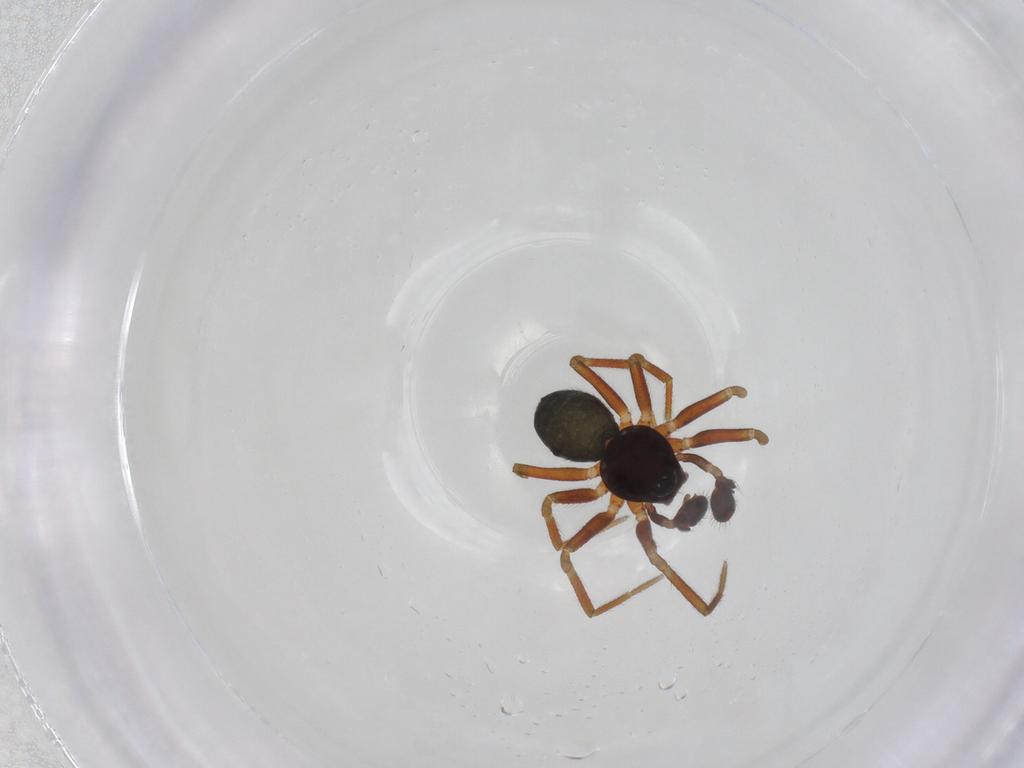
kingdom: Animalia
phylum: Arthropoda
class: Arachnida
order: Araneae
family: Linyphiidae
